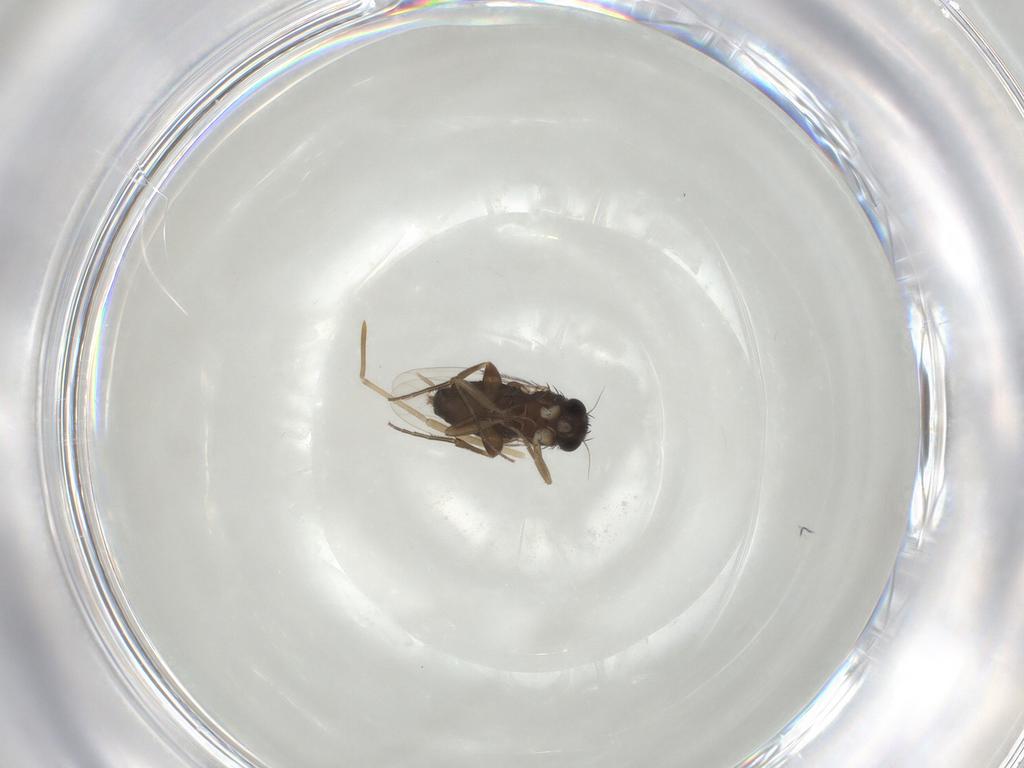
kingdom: Animalia
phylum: Arthropoda
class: Insecta
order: Diptera
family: Phoridae
